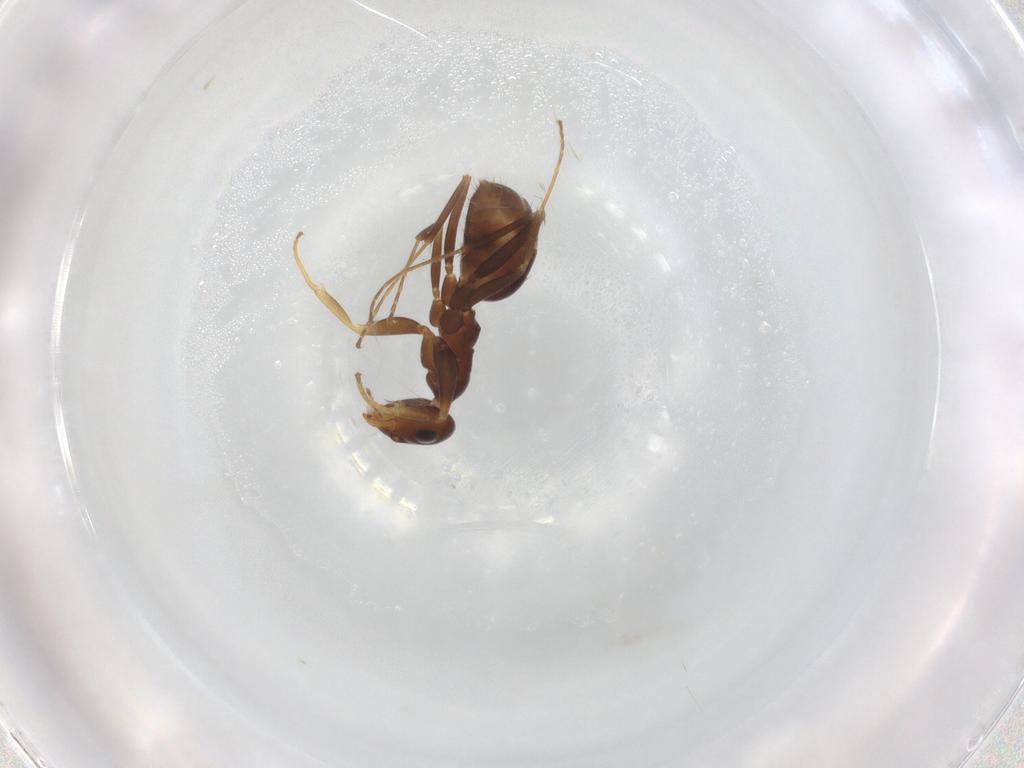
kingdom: Animalia
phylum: Arthropoda
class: Insecta
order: Hymenoptera
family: Formicidae
